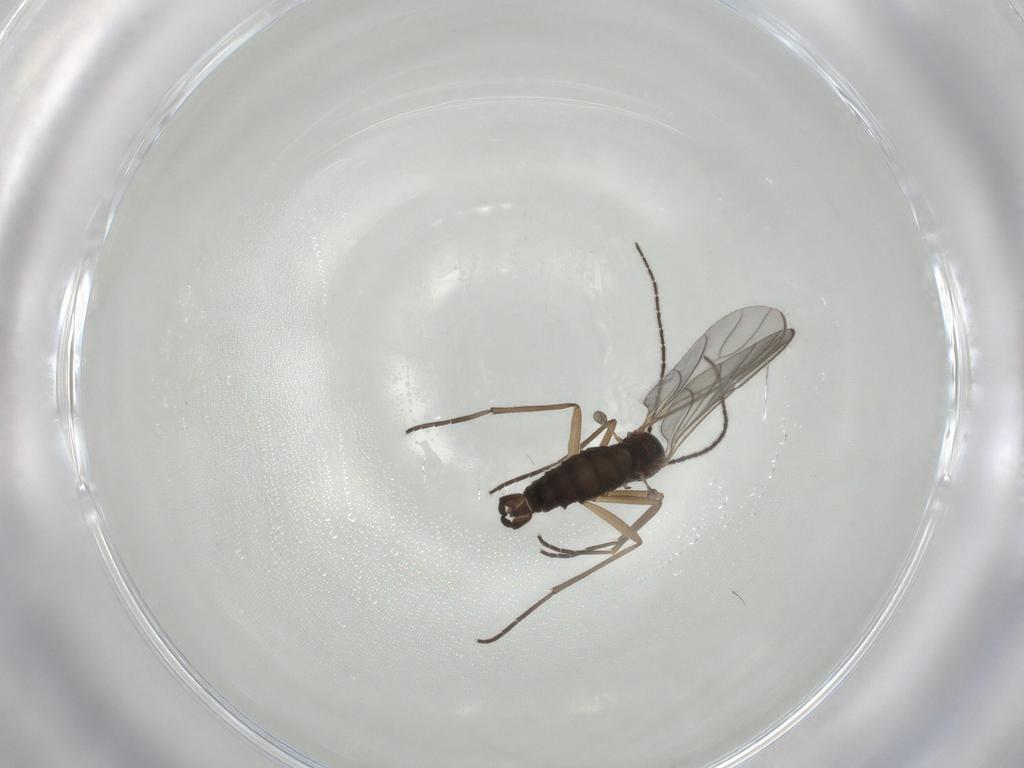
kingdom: Animalia
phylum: Arthropoda
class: Insecta
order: Diptera
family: Sciaridae
